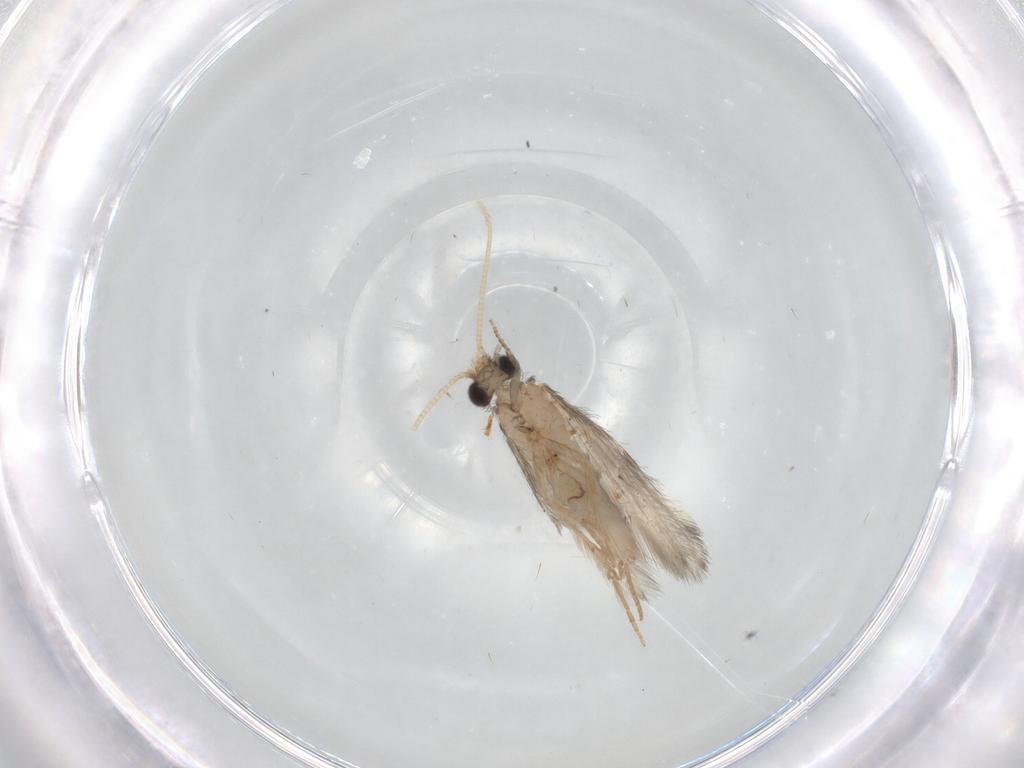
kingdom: Animalia
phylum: Arthropoda
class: Insecta
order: Trichoptera
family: Hydroptilidae
